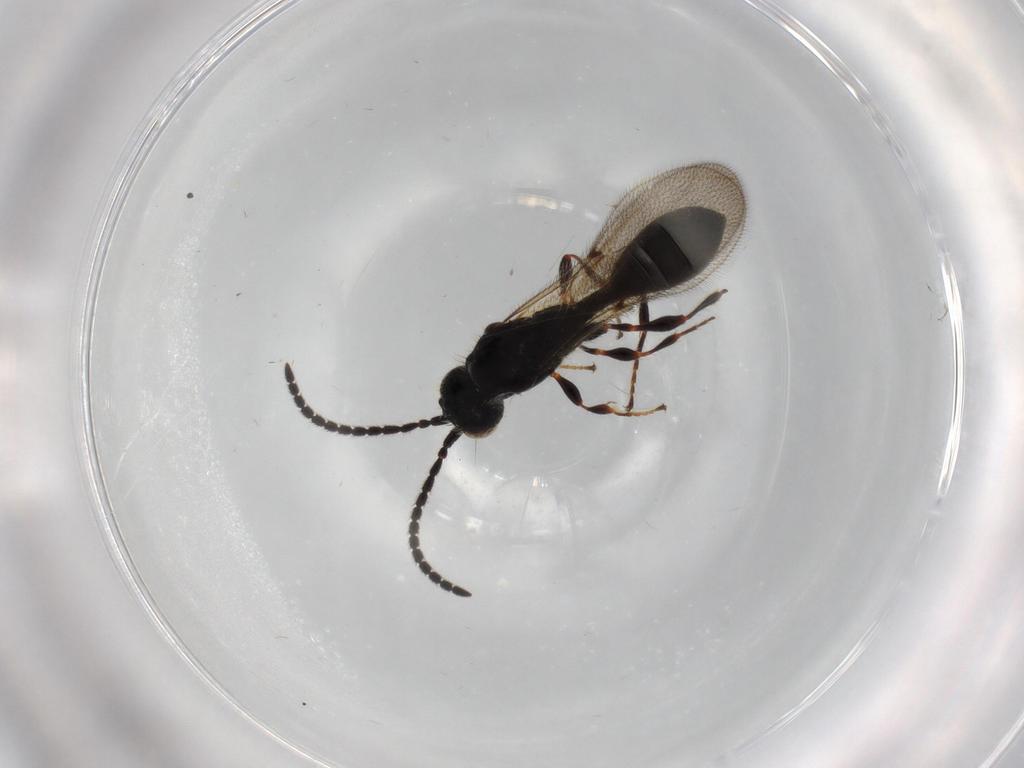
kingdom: Animalia
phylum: Arthropoda
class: Insecta
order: Hymenoptera
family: Diapriidae
